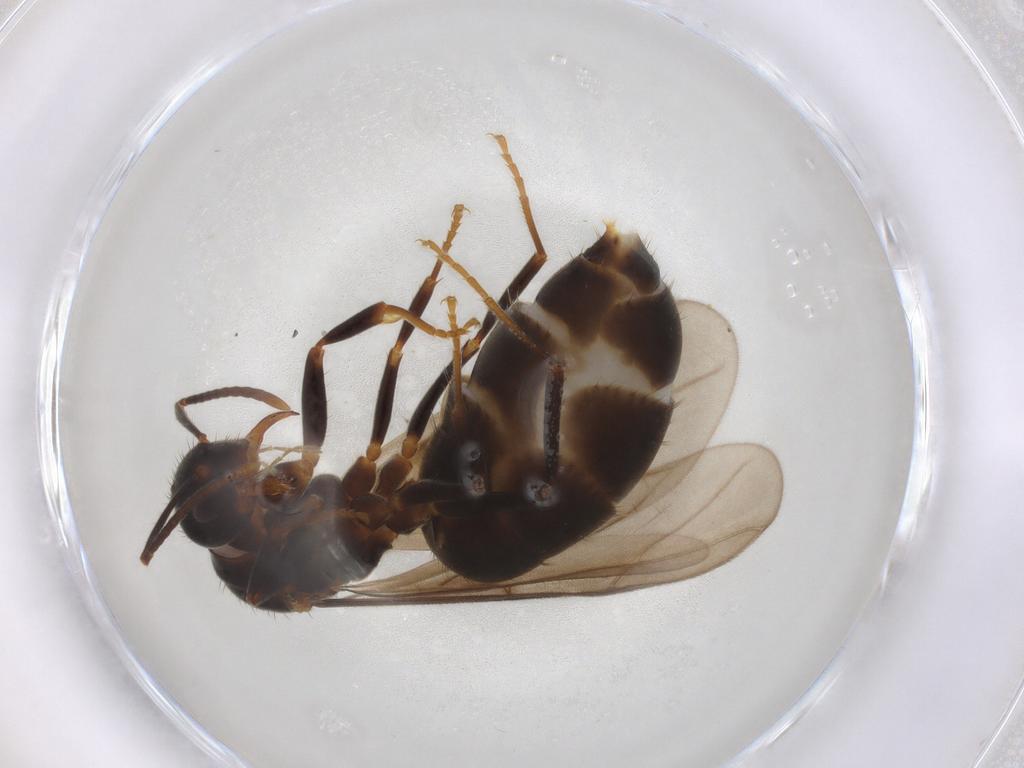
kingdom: Animalia
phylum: Arthropoda
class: Insecta
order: Hymenoptera
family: Formicidae
